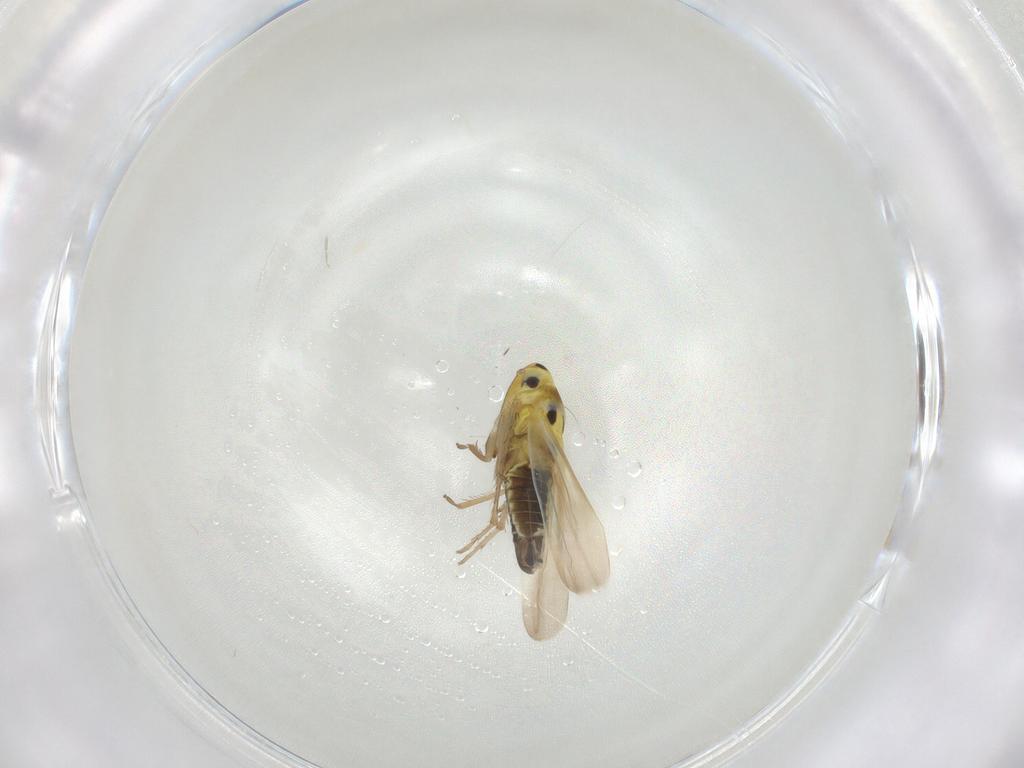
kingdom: Animalia
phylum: Arthropoda
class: Insecta
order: Hemiptera
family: Cicadellidae
